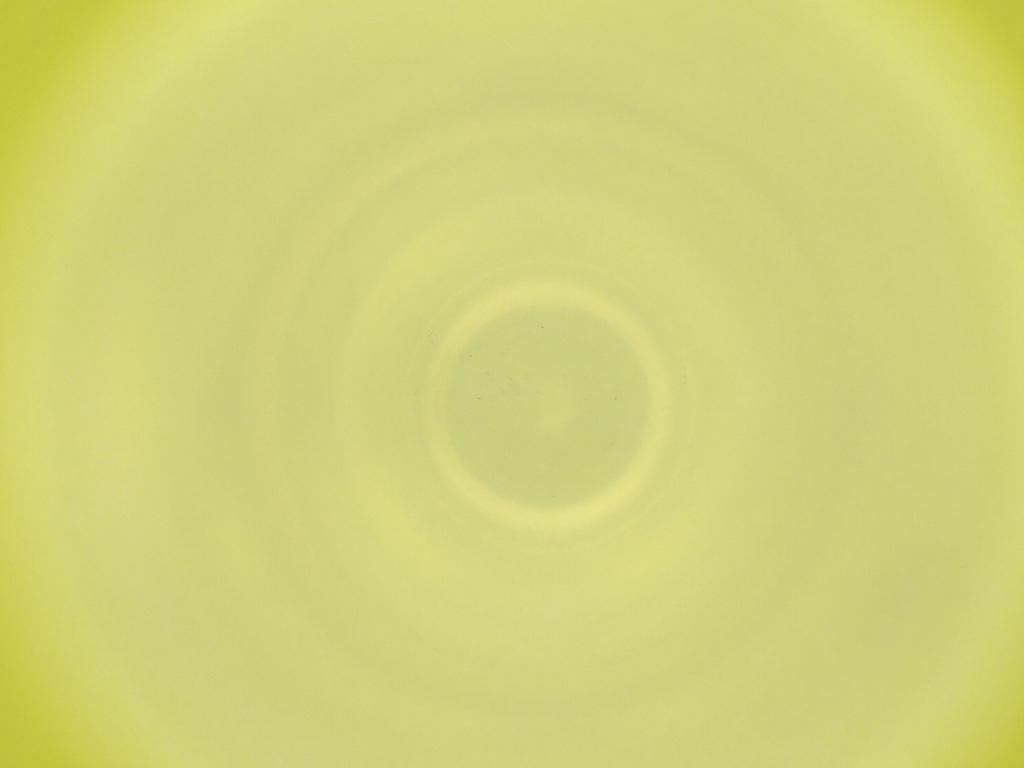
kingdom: Animalia
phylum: Arthropoda
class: Insecta
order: Diptera
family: Cecidomyiidae
